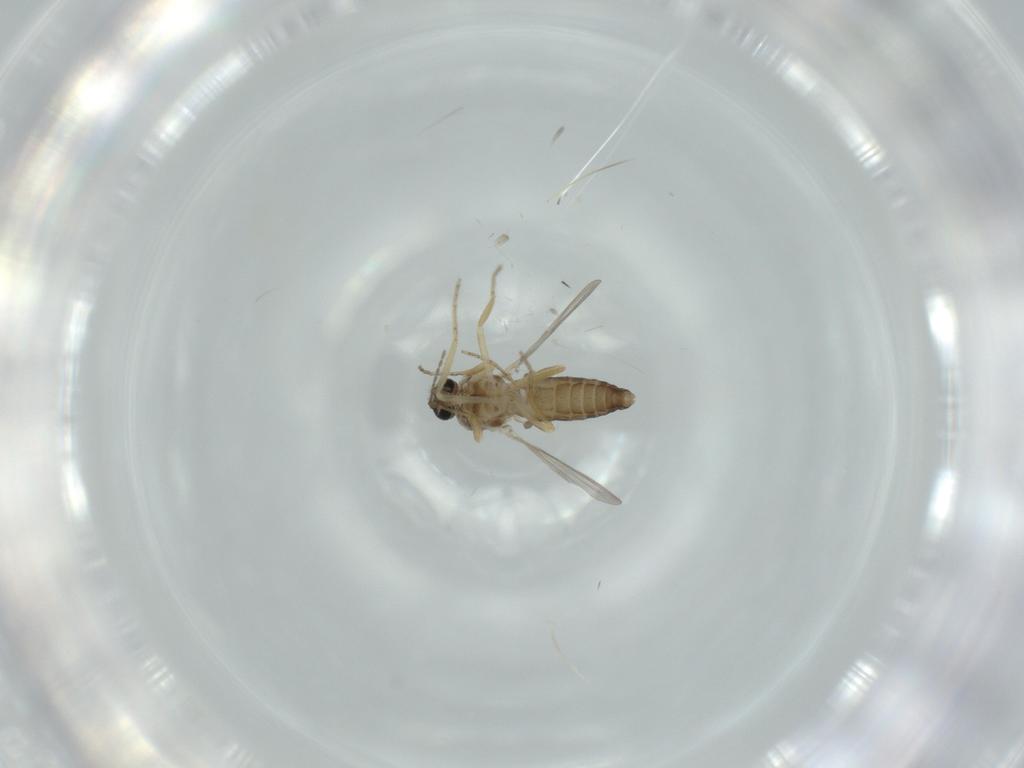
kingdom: Animalia
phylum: Arthropoda
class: Insecta
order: Diptera
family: Ceratopogonidae
